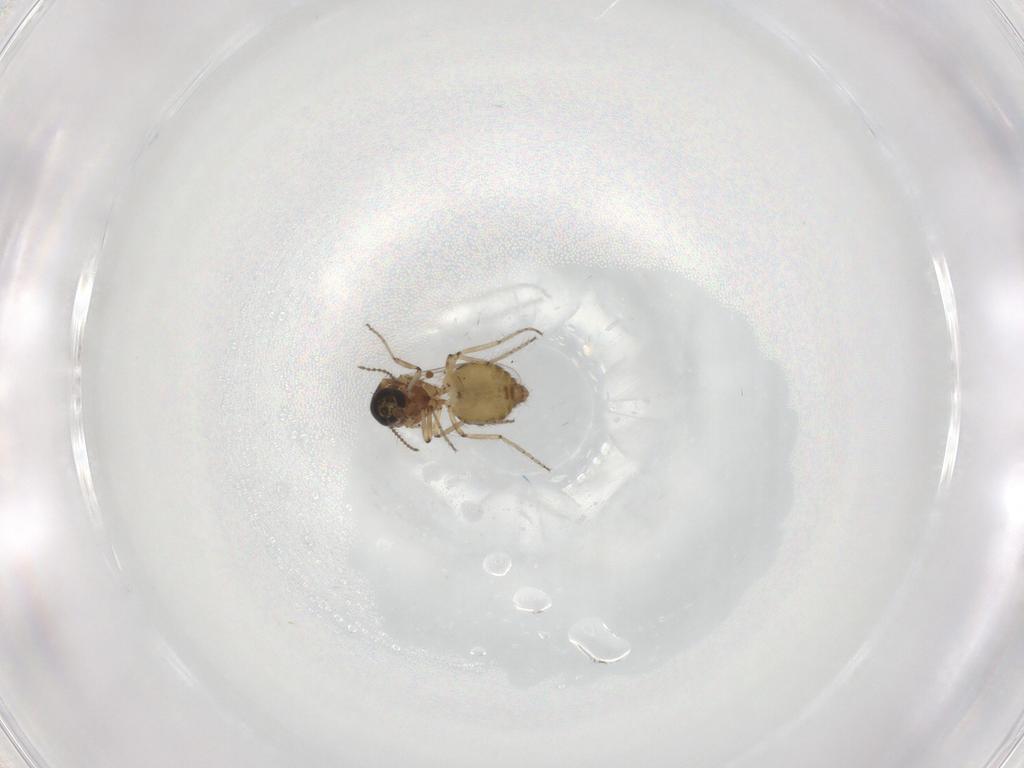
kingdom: Animalia
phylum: Arthropoda
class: Insecta
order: Diptera
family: Ceratopogonidae
